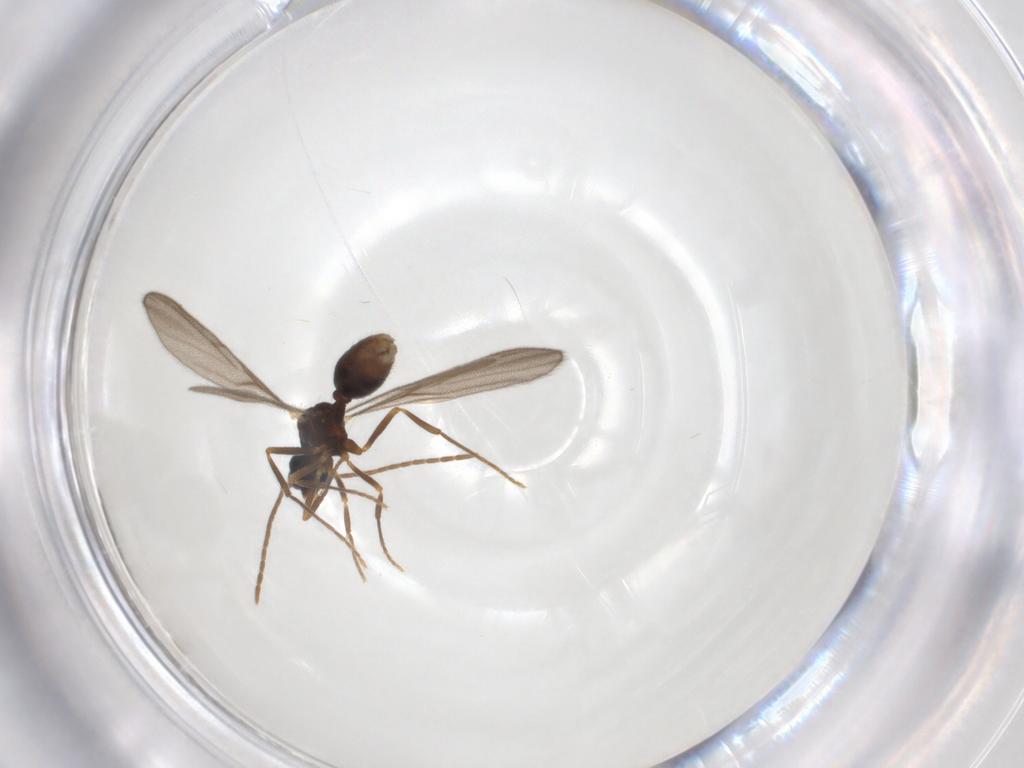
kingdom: Animalia
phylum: Arthropoda
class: Insecta
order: Hymenoptera
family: Formicidae
